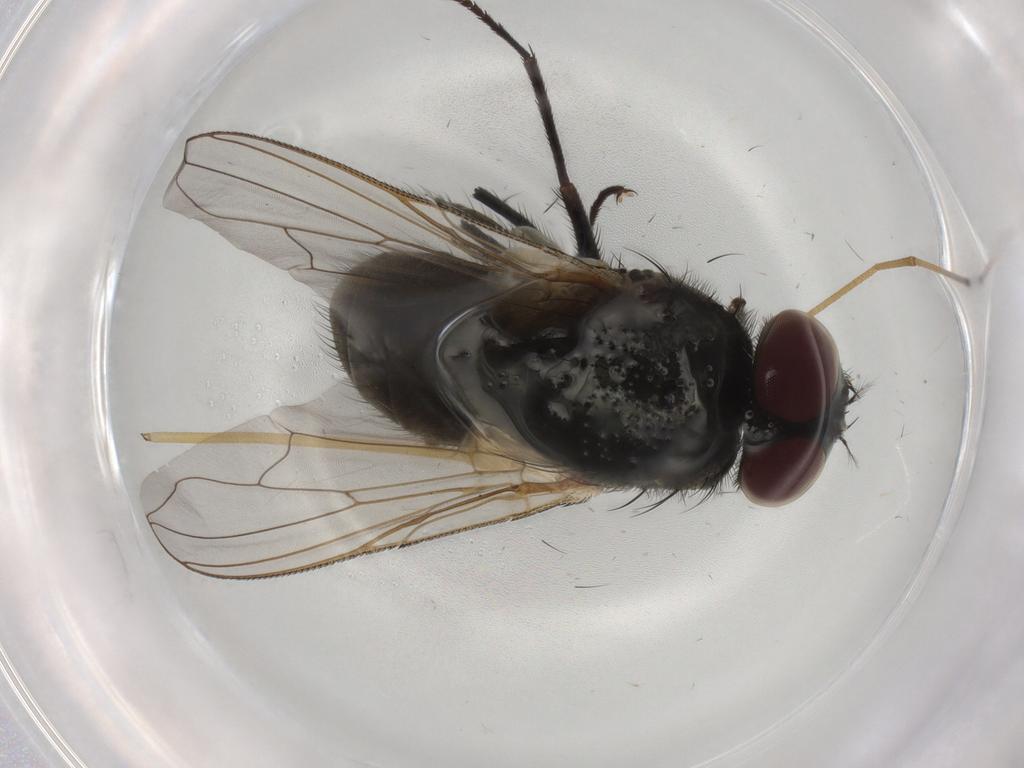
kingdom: Animalia
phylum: Arthropoda
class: Insecta
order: Diptera
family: Limoniidae
